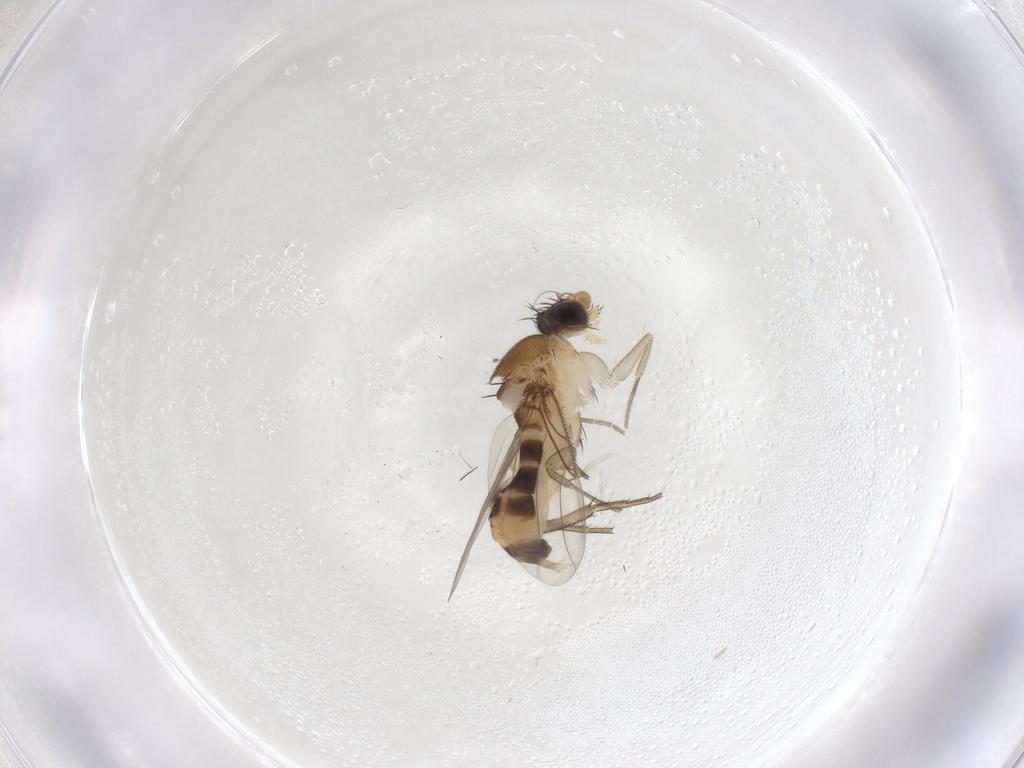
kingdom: Animalia
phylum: Arthropoda
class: Insecta
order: Diptera
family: Phoridae
